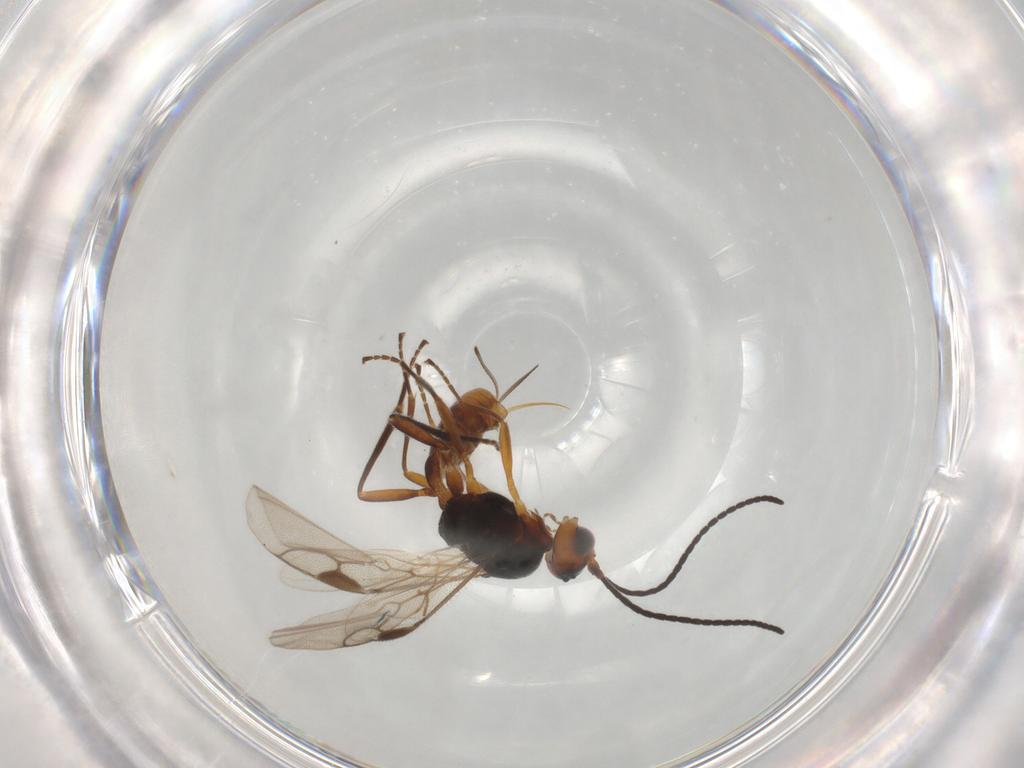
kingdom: Animalia
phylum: Arthropoda
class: Insecta
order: Hymenoptera
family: Braconidae
